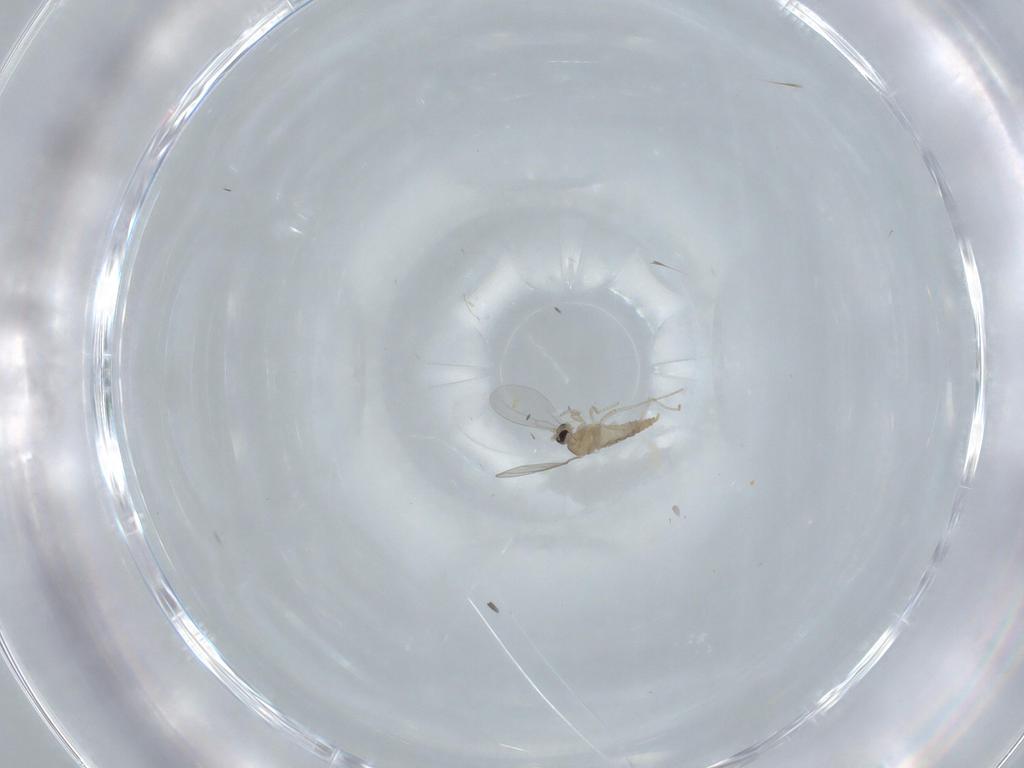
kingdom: Animalia
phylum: Arthropoda
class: Insecta
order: Diptera
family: Cecidomyiidae
